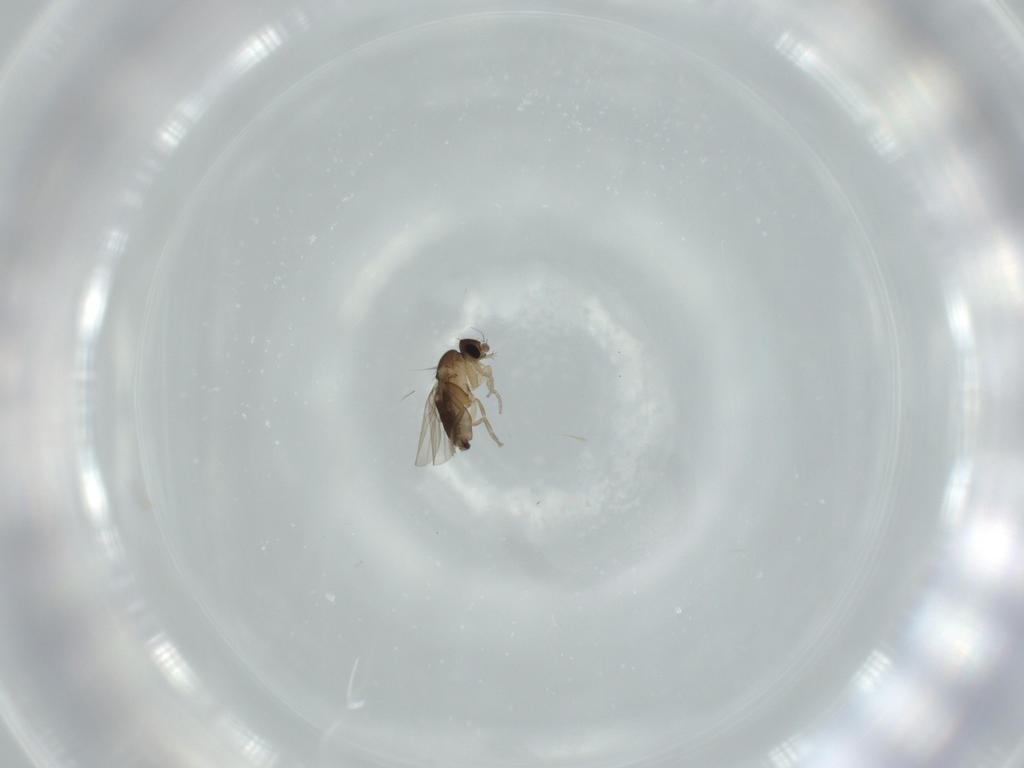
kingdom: Animalia
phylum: Arthropoda
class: Insecta
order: Diptera
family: Phoridae
